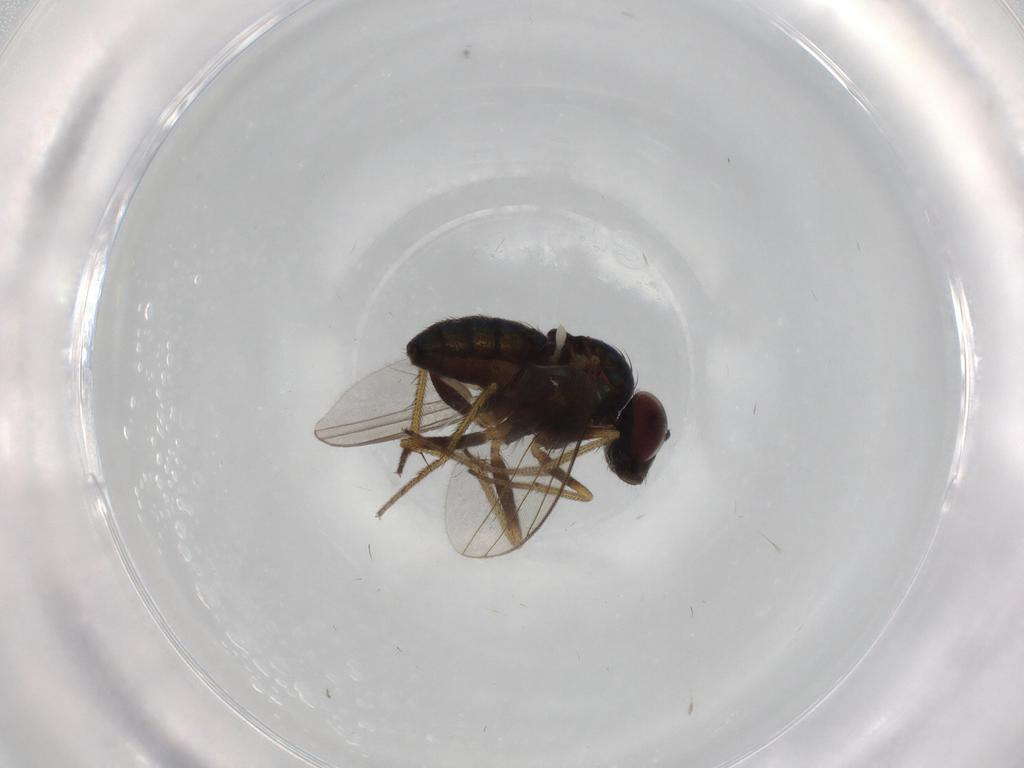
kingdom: Animalia
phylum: Arthropoda
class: Insecta
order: Diptera
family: Phoridae
